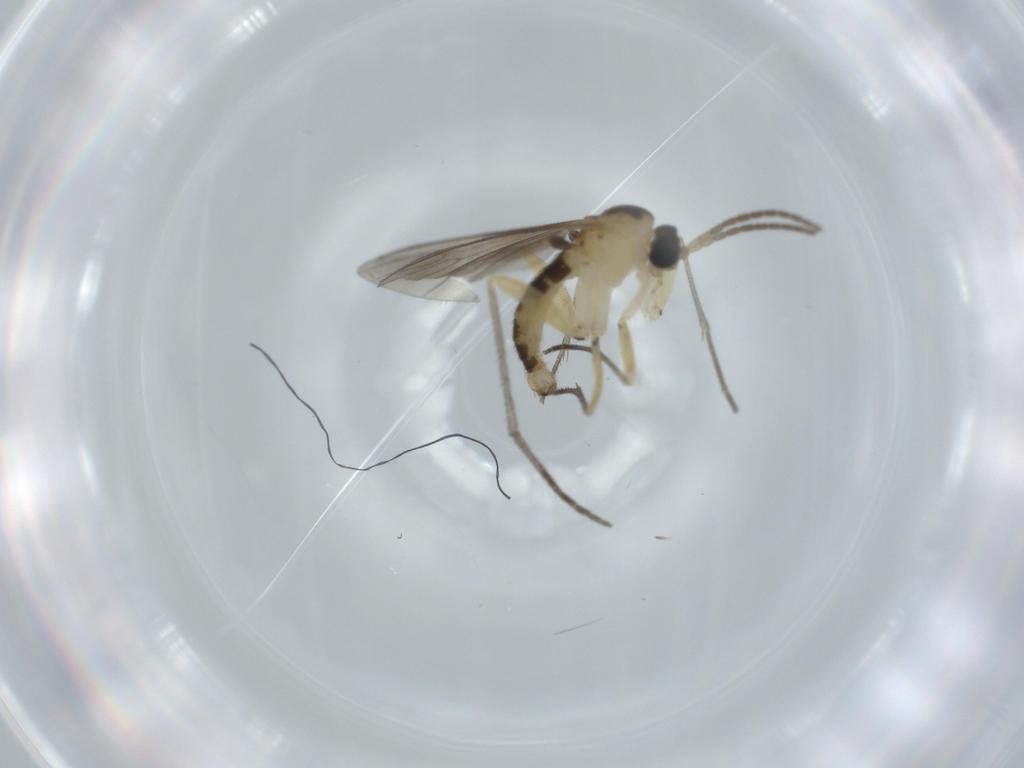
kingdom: Animalia
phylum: Arthropoda
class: Insecta
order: Diptera
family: Sciaridae
